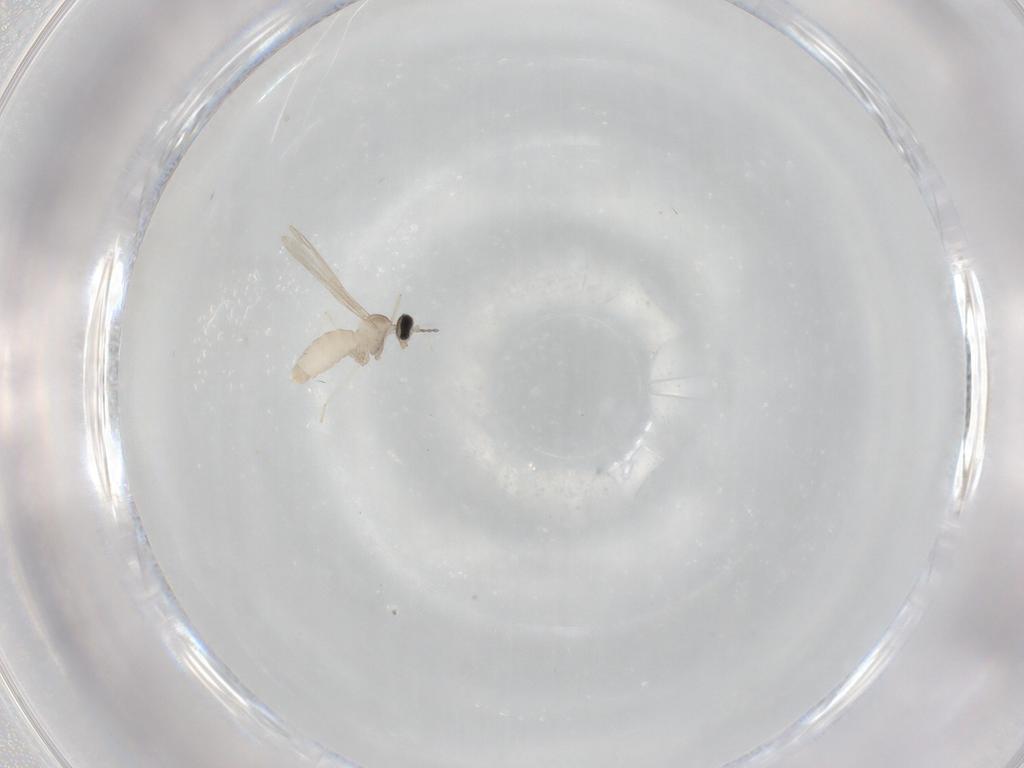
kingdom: Animalia
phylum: Arthropoda
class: Insecta
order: Diptera
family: Cecidomyiidae
